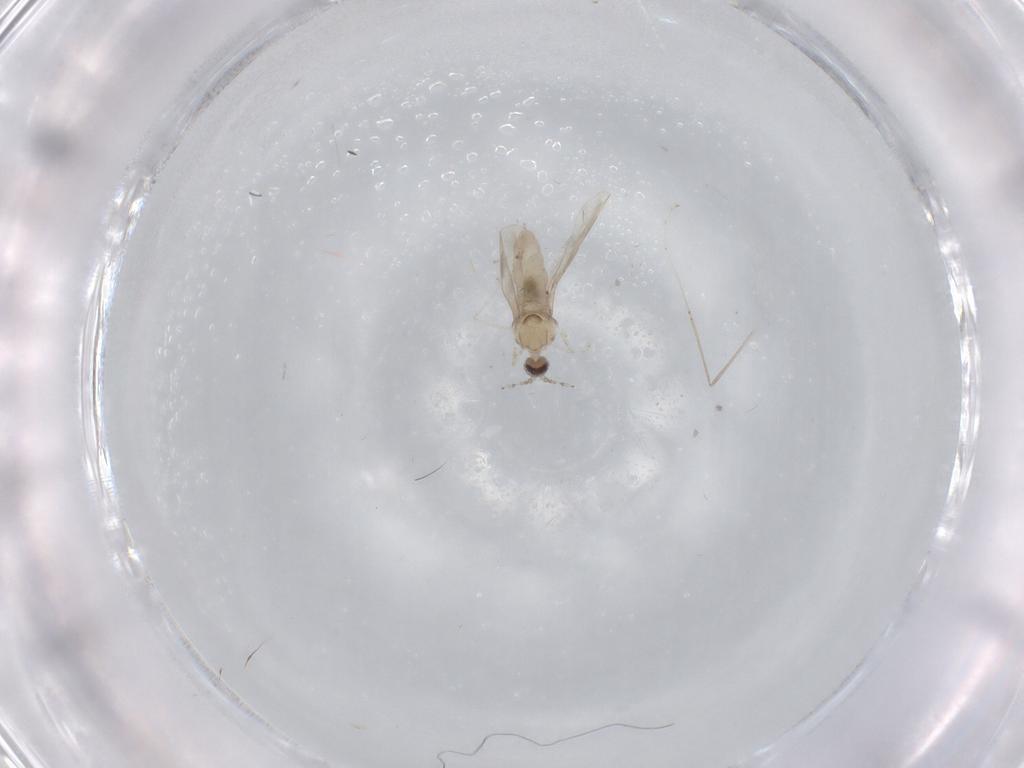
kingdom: Animalia
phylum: Arthropoda
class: Insecta
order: Diptera
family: Cecidomyiidae
